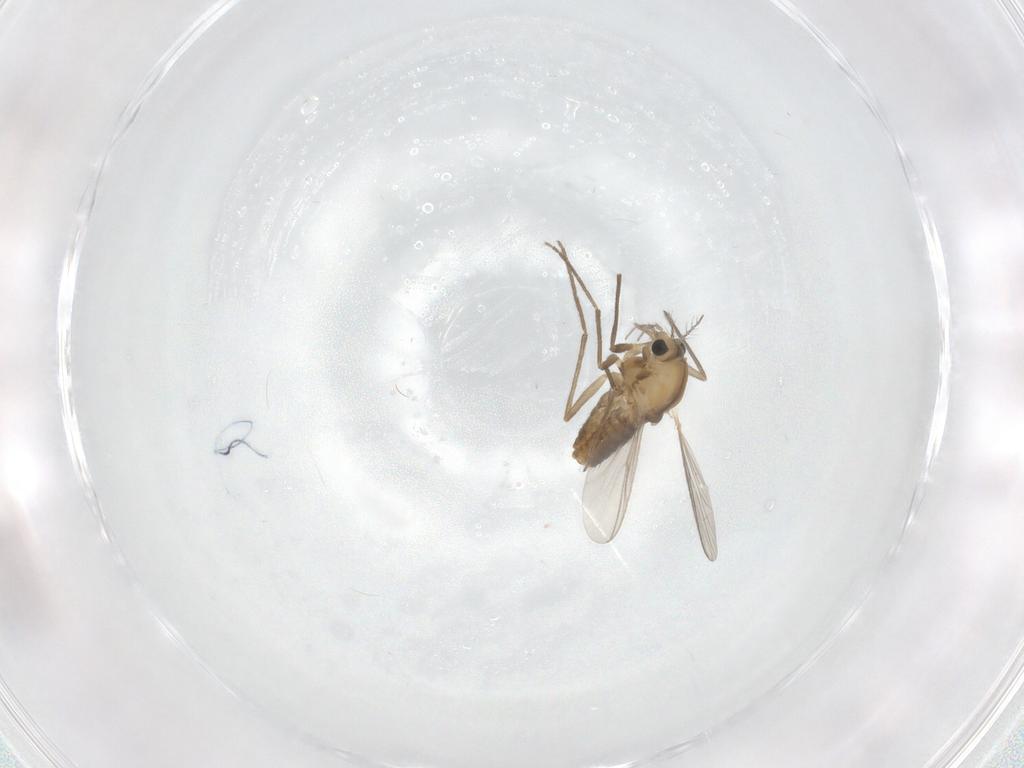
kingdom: Animalia
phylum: Arthropoda
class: Insecta
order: Diptera
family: Chironomidae
